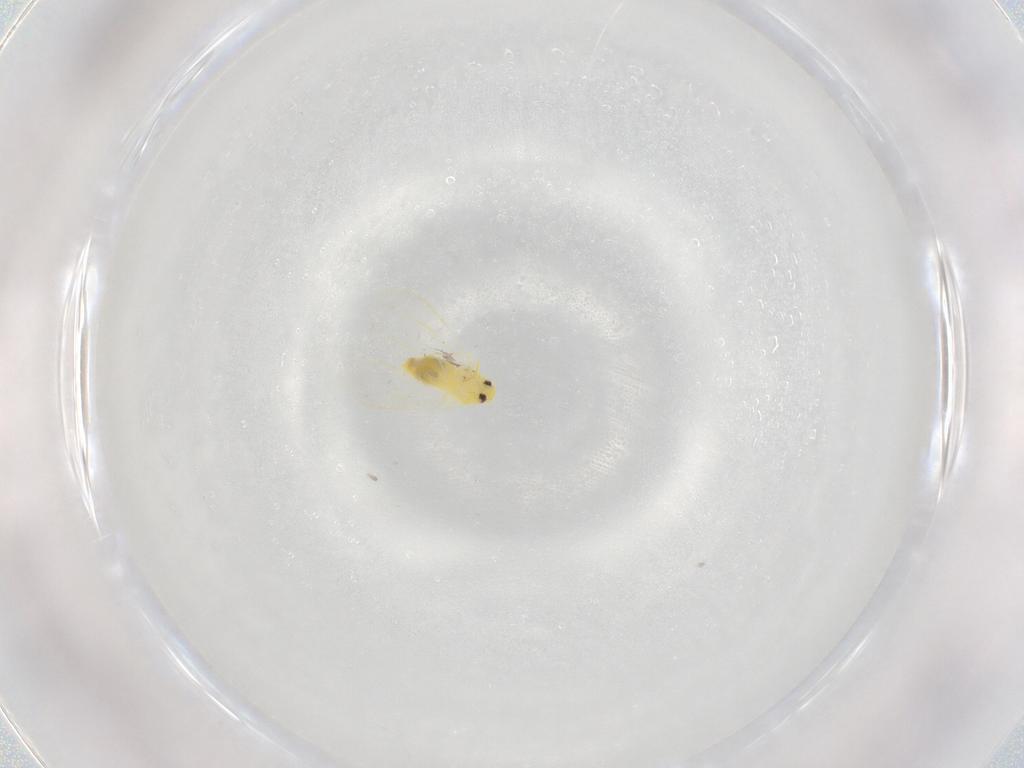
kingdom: Animalia
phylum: Arthropoda
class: Insecta
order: Hemiptera
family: Aleyrodidae
